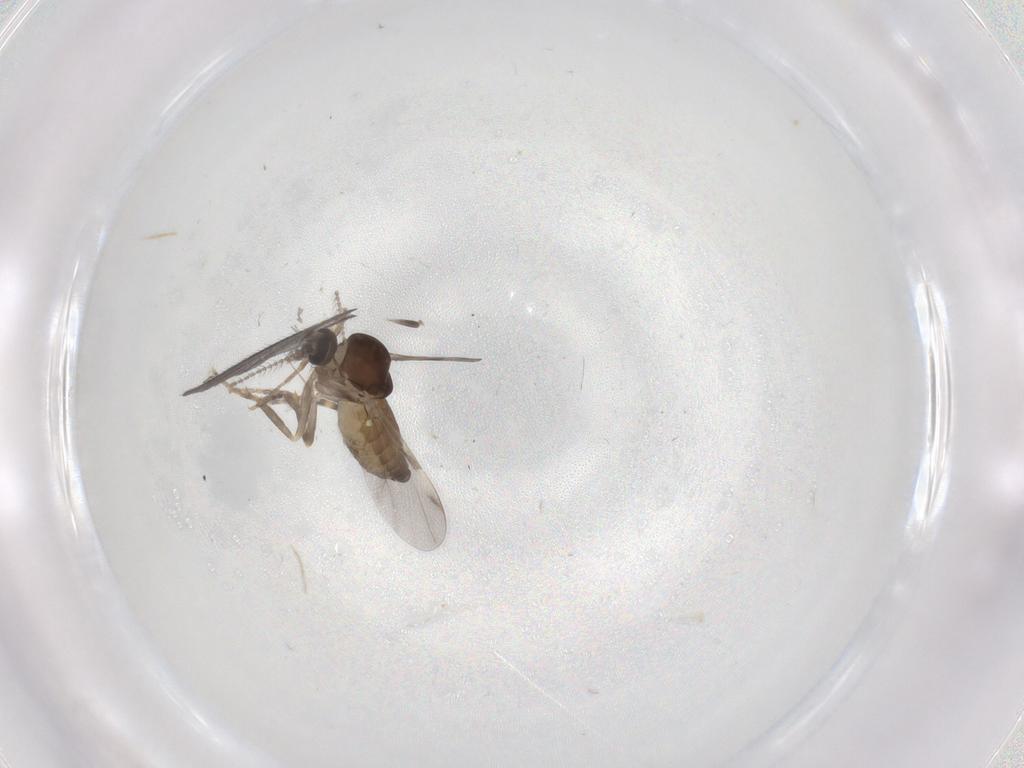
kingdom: Animalia
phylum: Arthropoda
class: Insecta
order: Diptera
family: Ceratopogonidae
